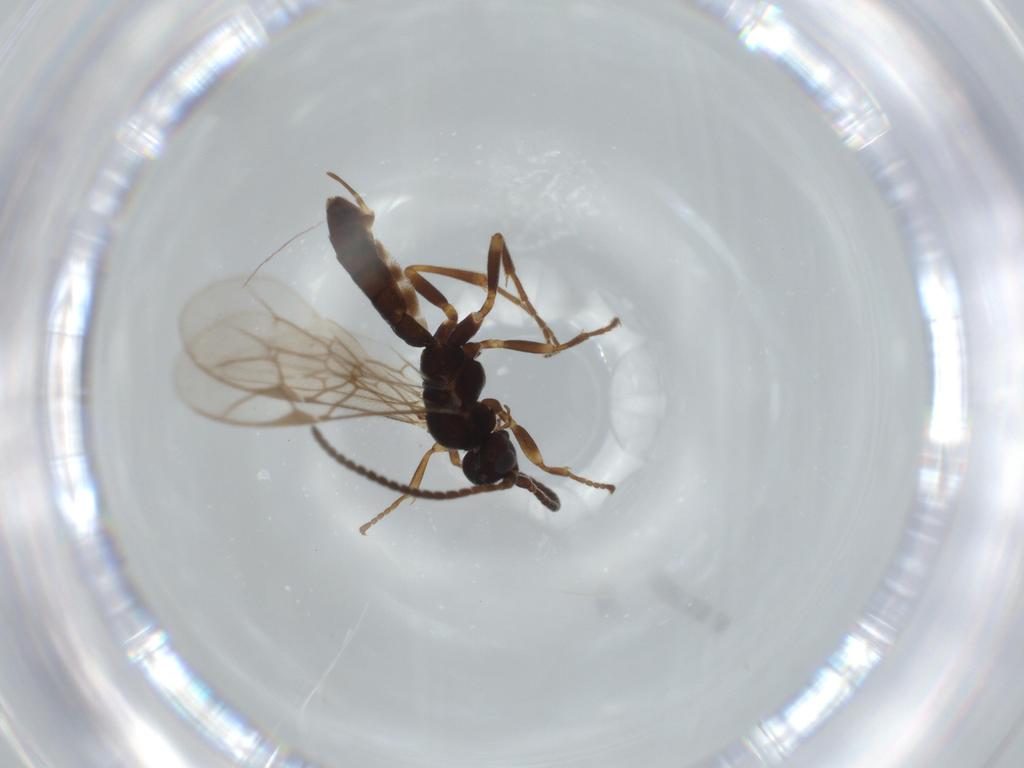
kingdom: Animalia
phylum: Arthropoda
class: Insecta
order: Hymenoptera
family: Ichneumonidae
